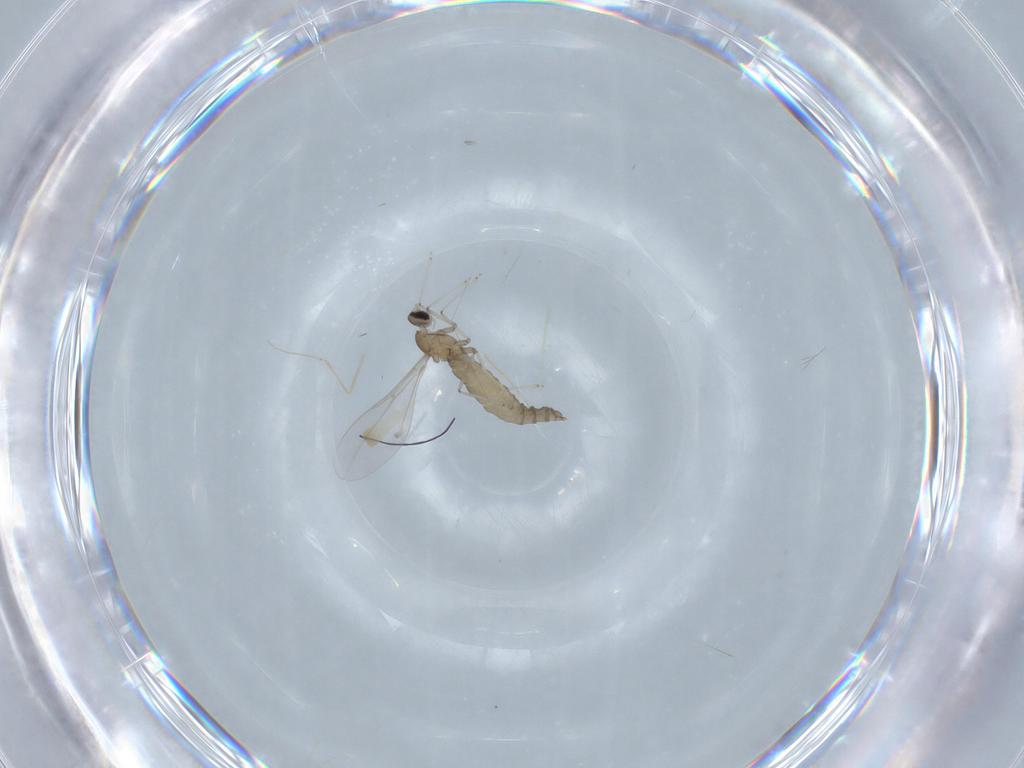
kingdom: Animalia
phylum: Arthropoda
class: Insecta
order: Diptera
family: Cecidomyiidae
